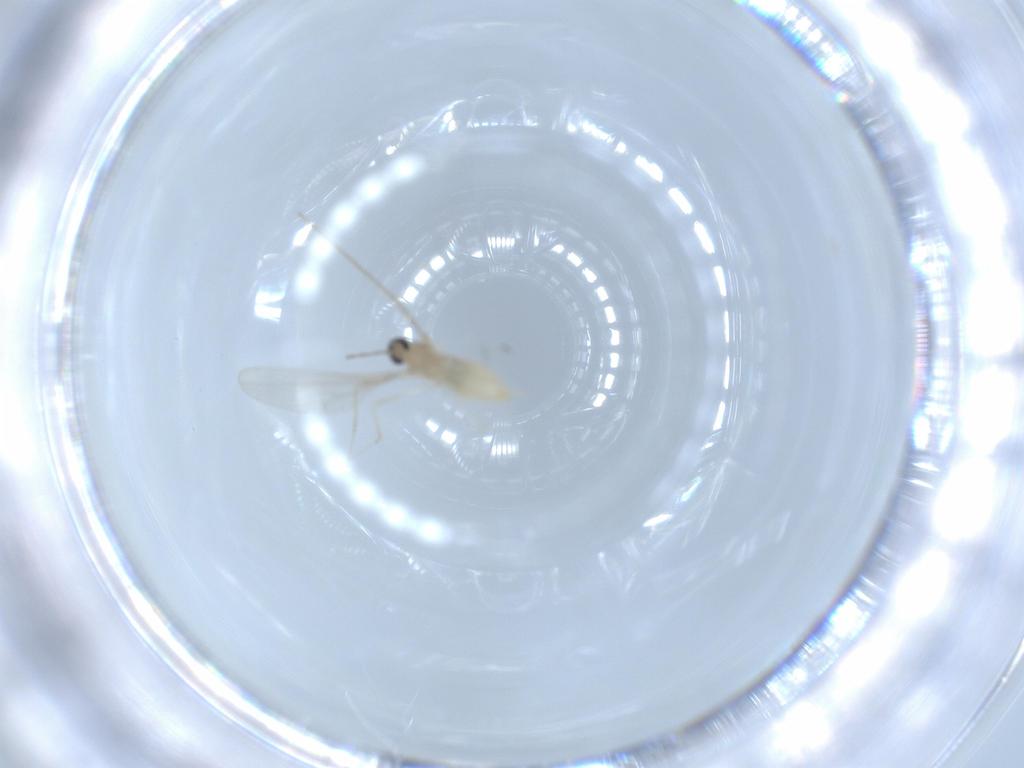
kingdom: Animalia
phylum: Arthropoda
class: Insecta
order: Diptera
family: Cecidomyiidae
